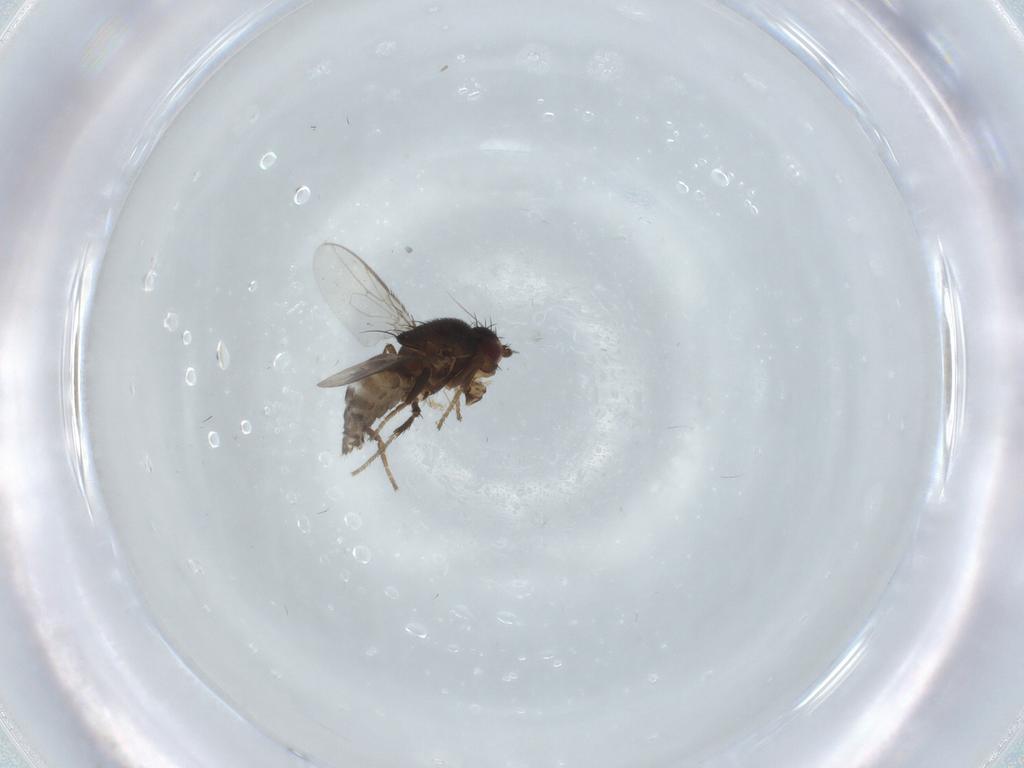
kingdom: Animalia
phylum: Arthropoda
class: Insecta
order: Diptera
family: Sphaeroceridae
